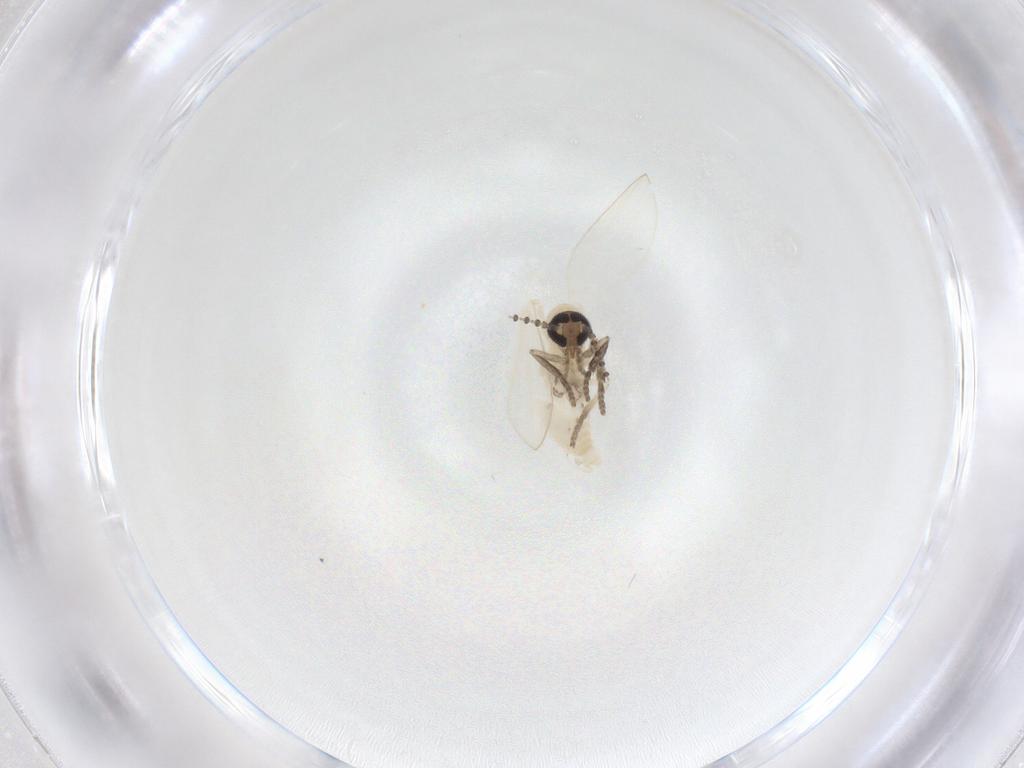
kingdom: Animalia
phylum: Arthropoda
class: Insecta
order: Diptera
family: Psychodidae
